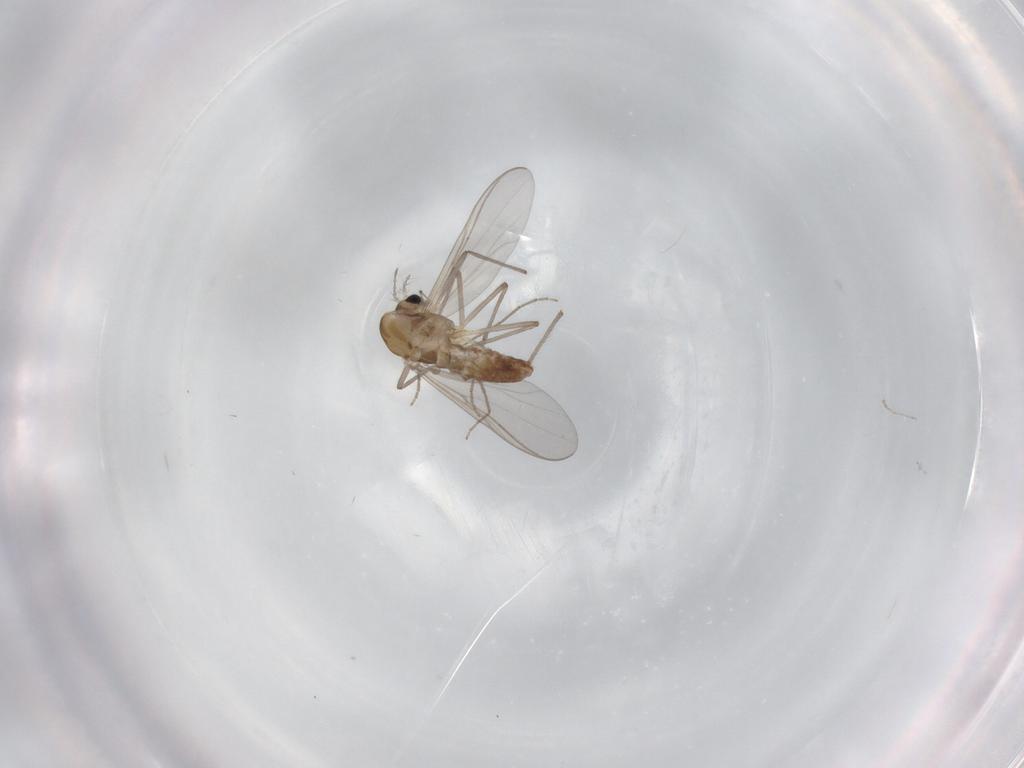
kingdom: Animalia
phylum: Arthropoda
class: Insecta
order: Diptera
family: Chironomidae
